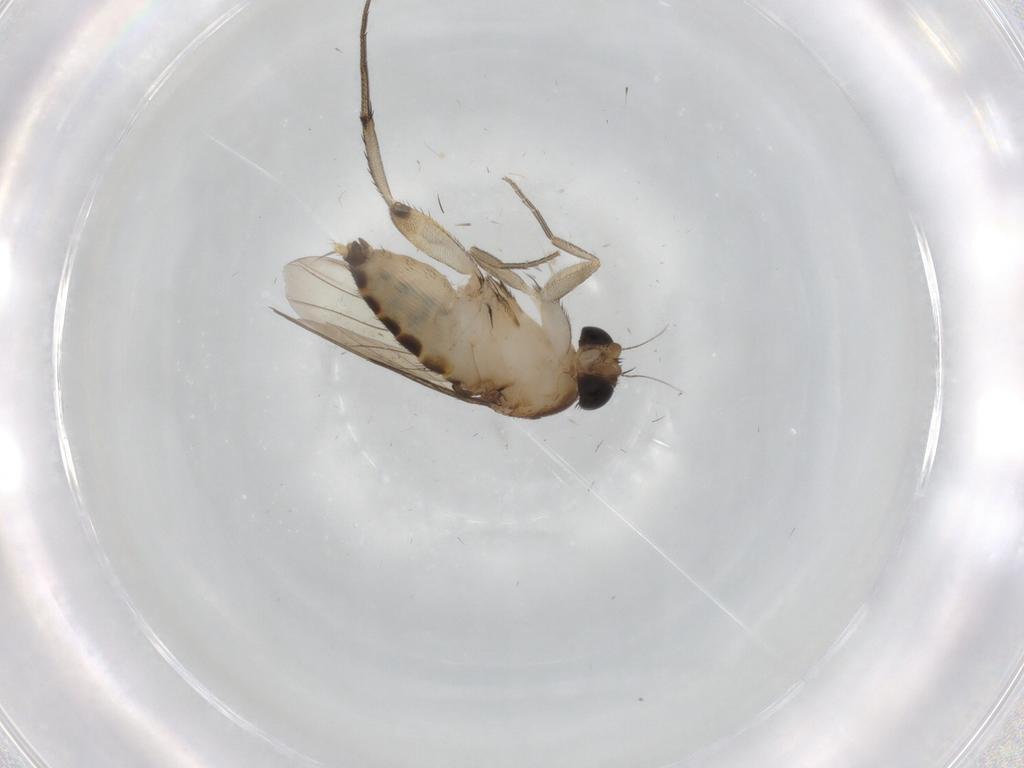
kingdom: Animalia
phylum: Arthropoda
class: Insecta
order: Diptera
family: Phoridae
